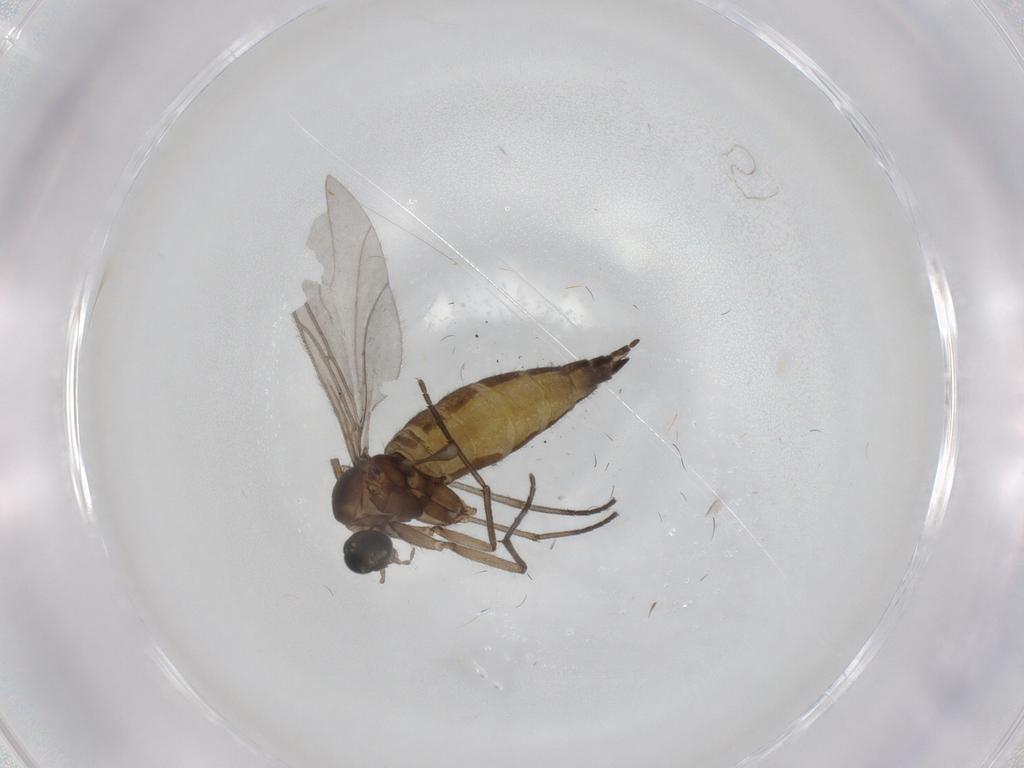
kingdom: Animalia
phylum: Arthropoda
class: Insecta
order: Diptera
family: Sciaridae
